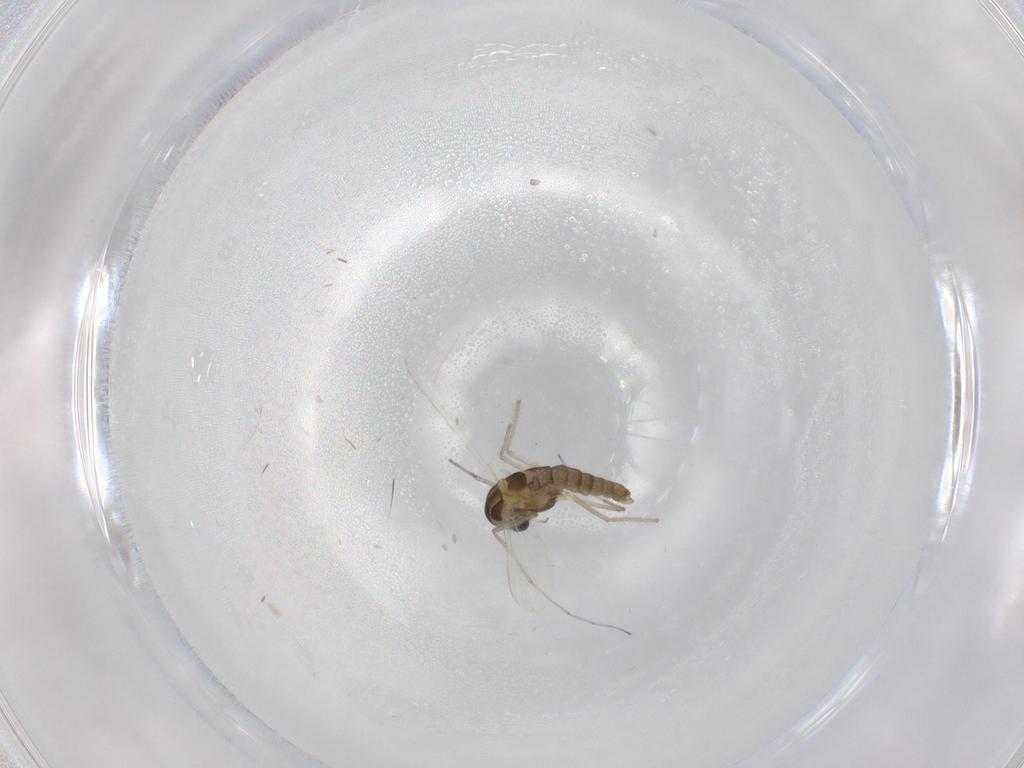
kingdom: Animalia
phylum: Arthropoda
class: Insecta
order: Diptera
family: Chironomidae
